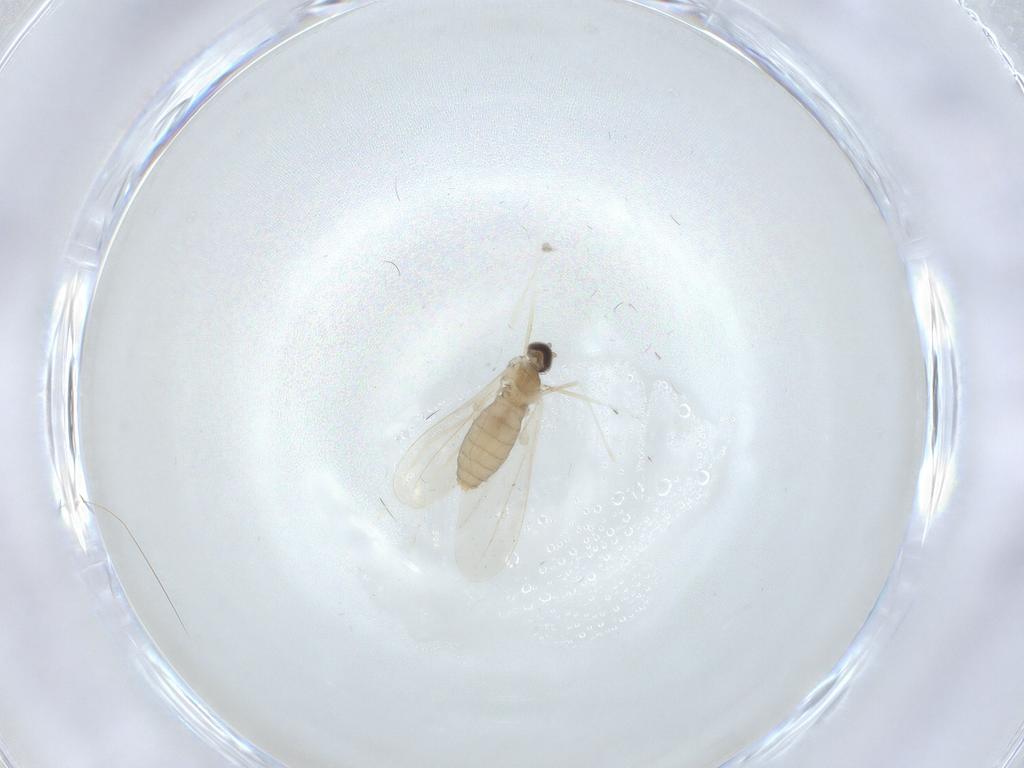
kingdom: Animalia
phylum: Arthropoda
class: Insecta
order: Diptera
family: Cecidomyiidae
